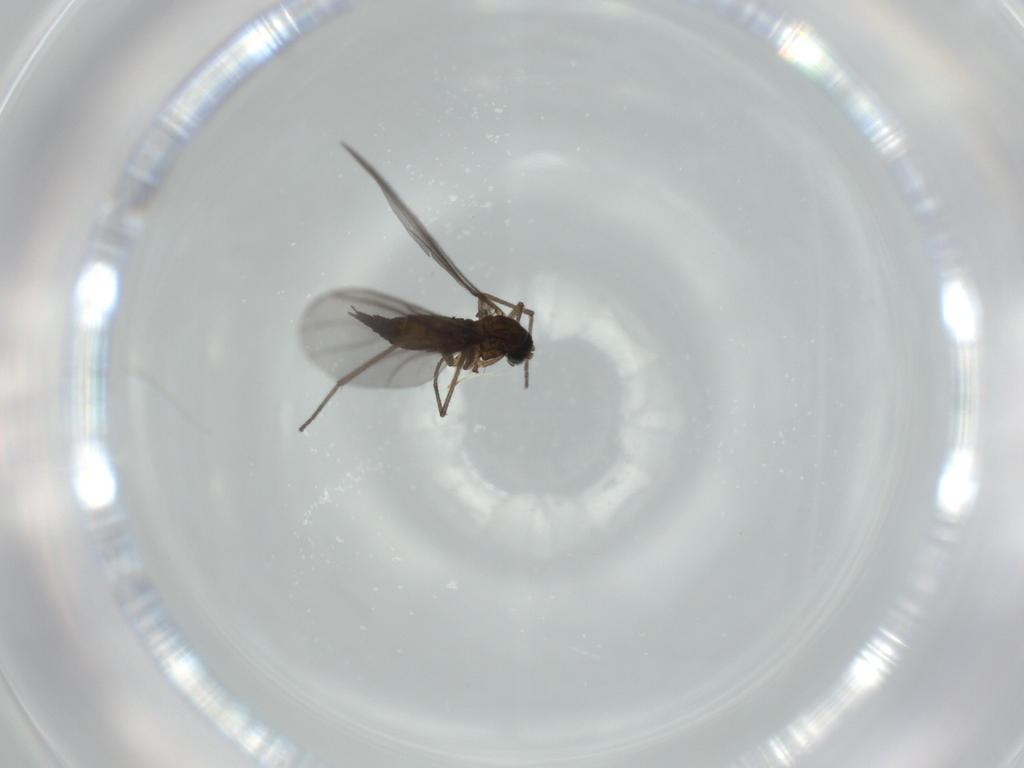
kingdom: Animalia
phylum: Arthropoda
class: Insecta
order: Diptera
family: Sciaridae
